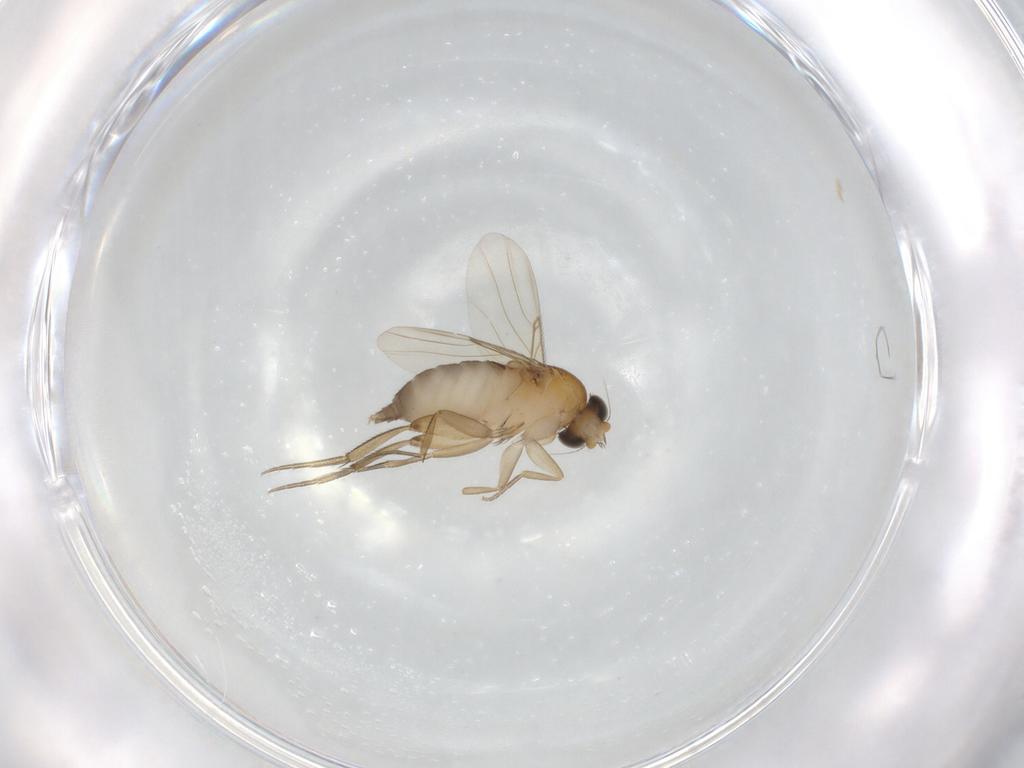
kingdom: Animalia
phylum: Arthropoda
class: Insecta
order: Diptera
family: Phoridae
